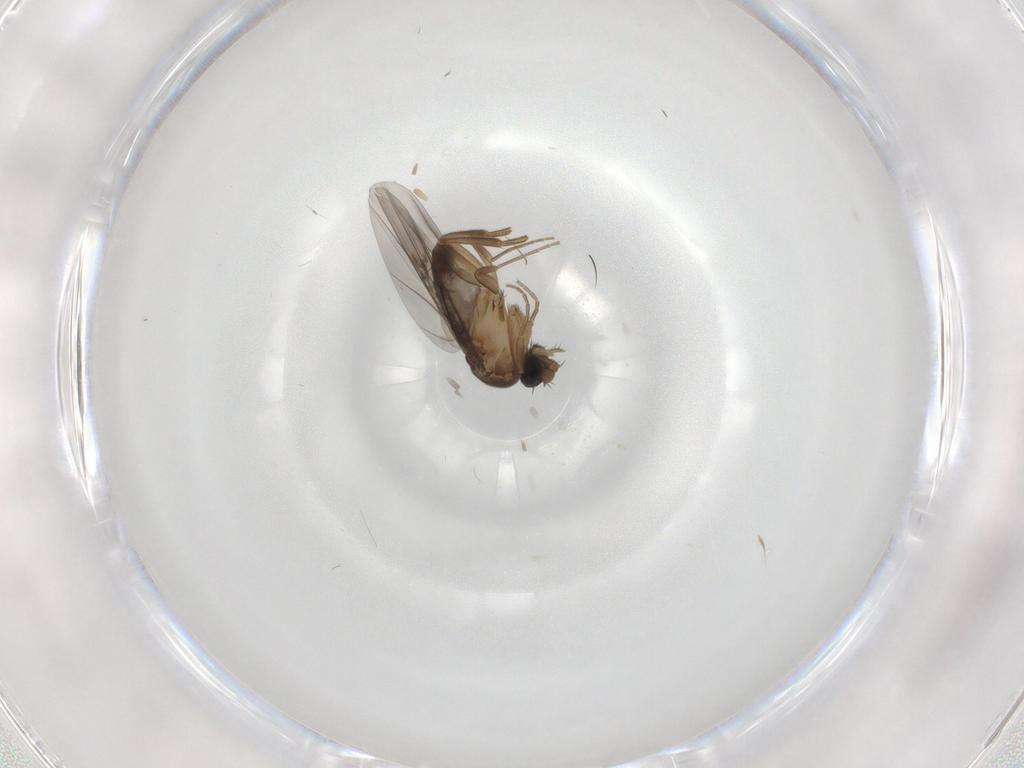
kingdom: Animalia
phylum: Arthropoda
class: Insecta
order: Diptera
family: Phoridae
